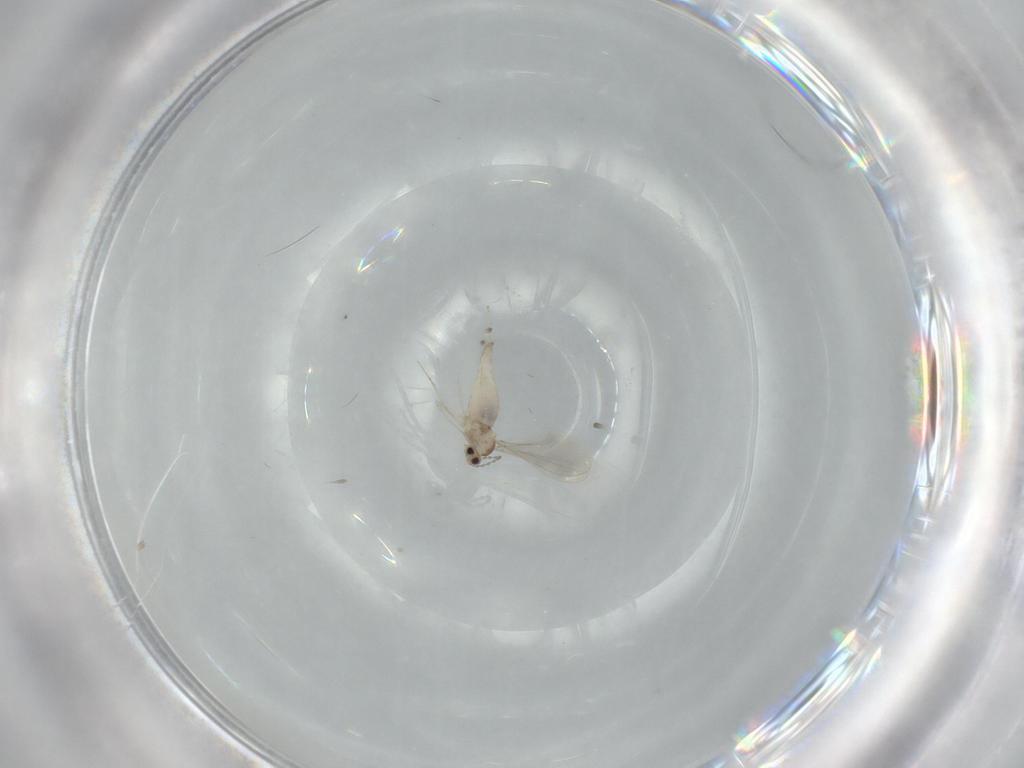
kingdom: Animalia
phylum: Arthropoda
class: Insecta
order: Diptera
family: Cecidomyiidae
